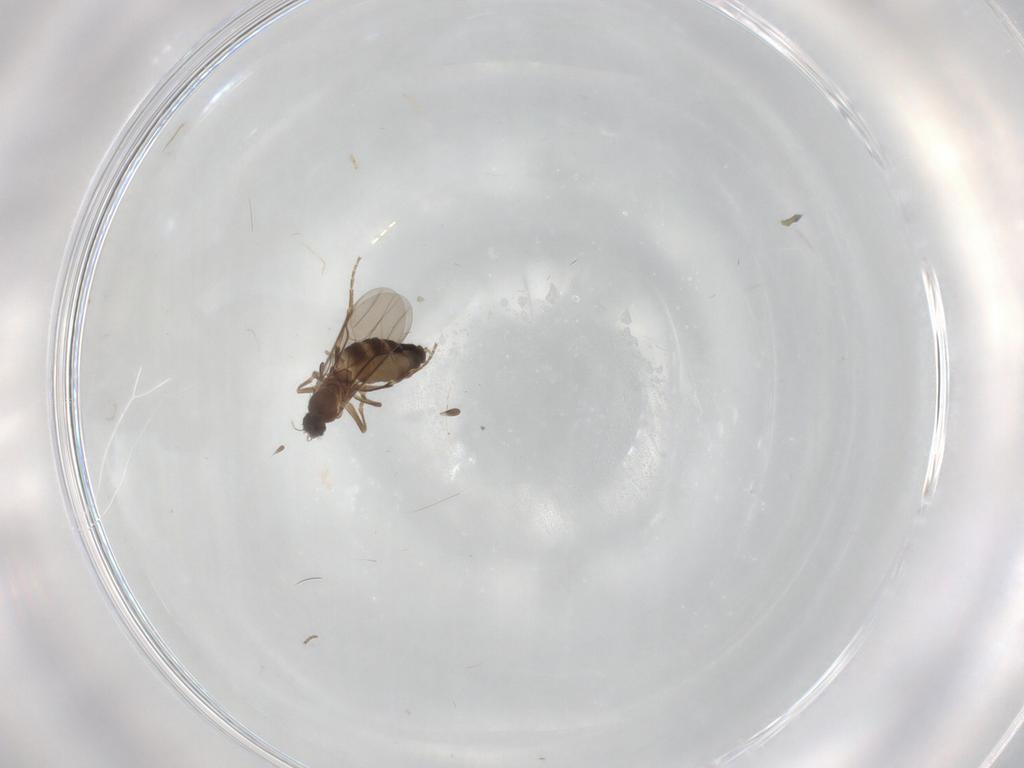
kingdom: Animalia
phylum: Arthropoda
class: Insecta
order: Diptera
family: Phoridae
